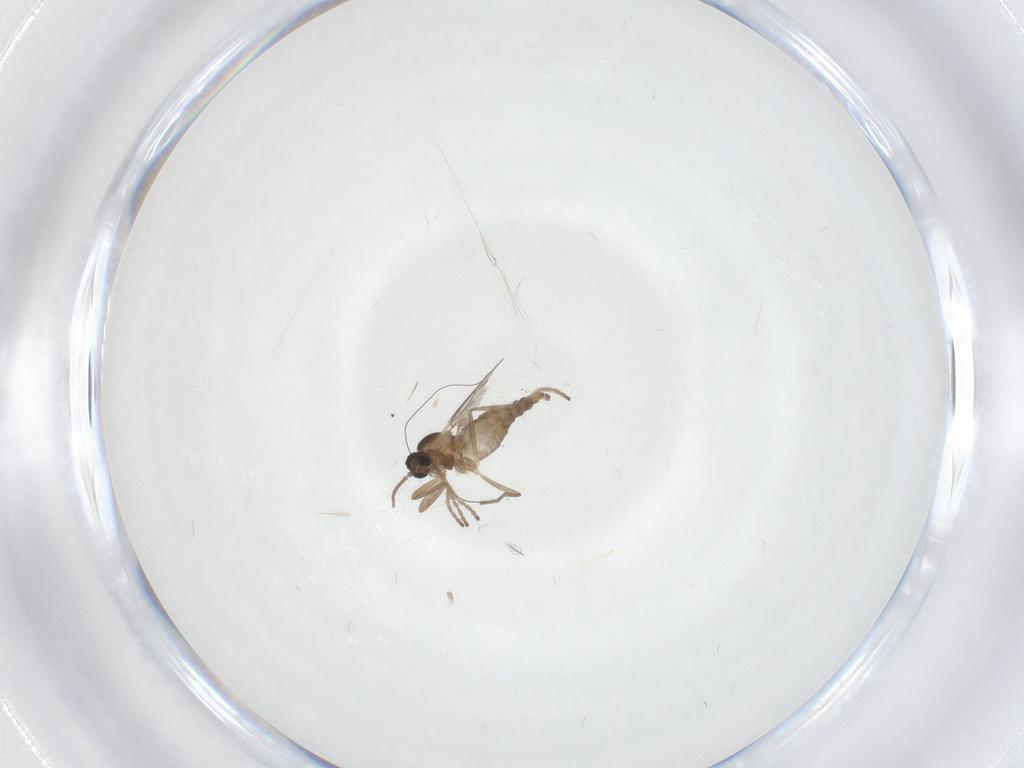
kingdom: Animalia
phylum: Arthropoda
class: Insecta
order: Diptera
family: Cecidomyiidae
